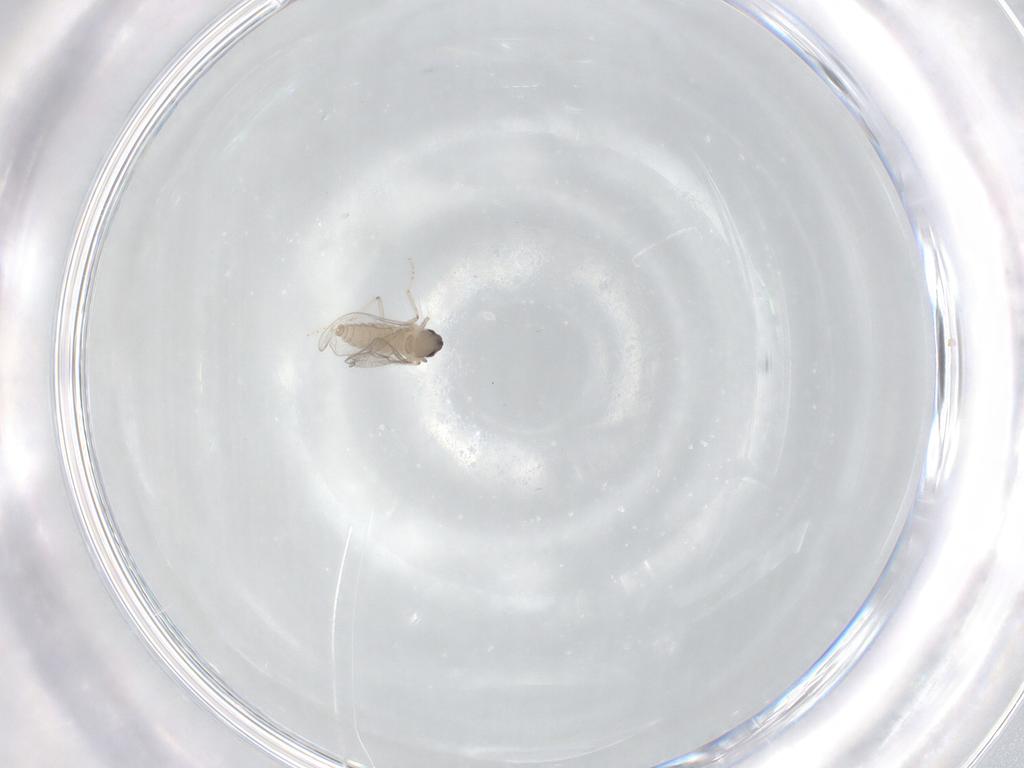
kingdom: Animalia
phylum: Arthropoda
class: Insecta
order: Diptera
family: Cecidomyiidae
